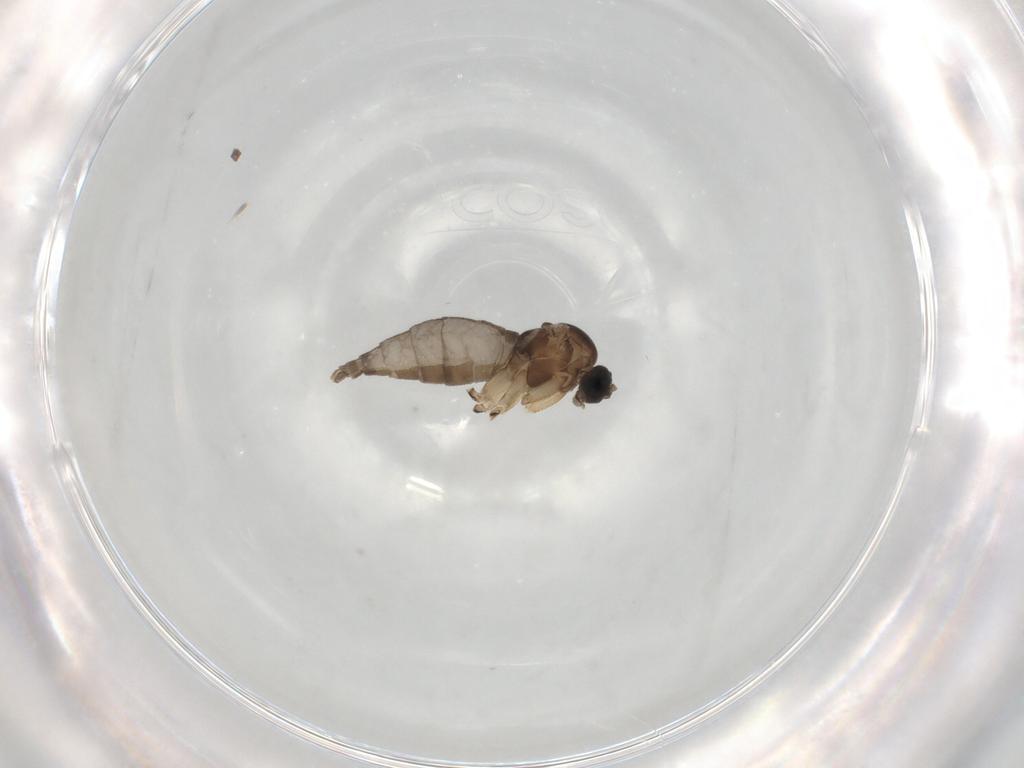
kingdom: Animalia
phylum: Arthropoda
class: Insecta
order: Diptera
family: Sciaridae
